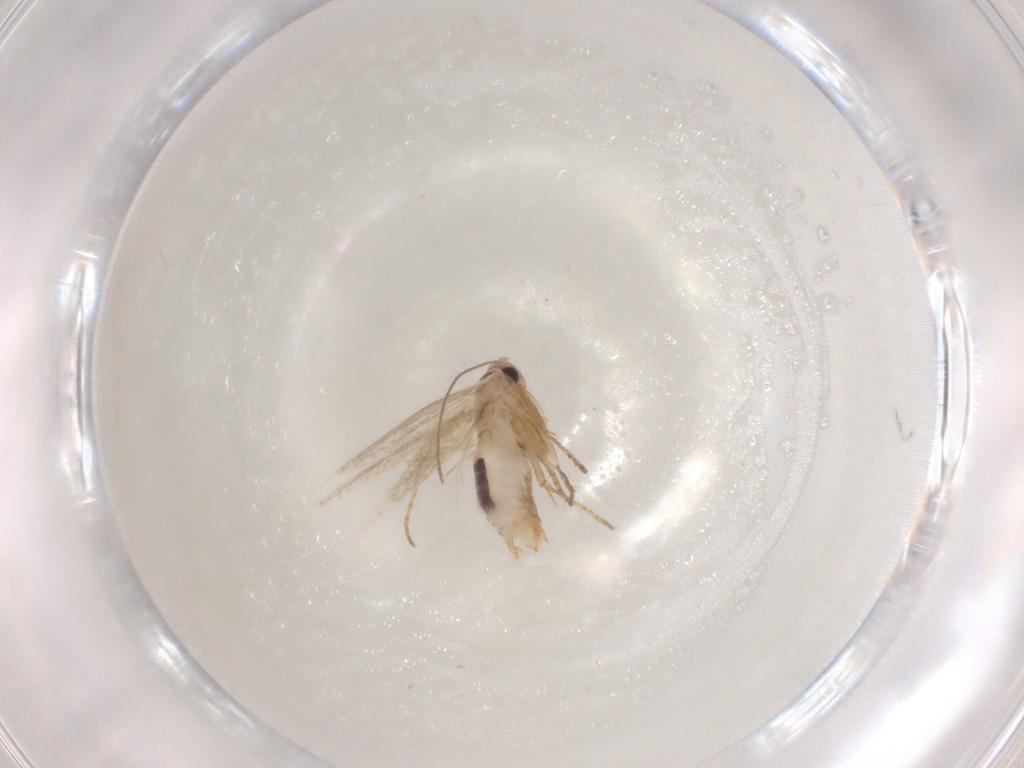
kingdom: Animalia
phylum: Arthropoda
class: Insecta
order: Lepidoptera
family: Bucculatricidae
